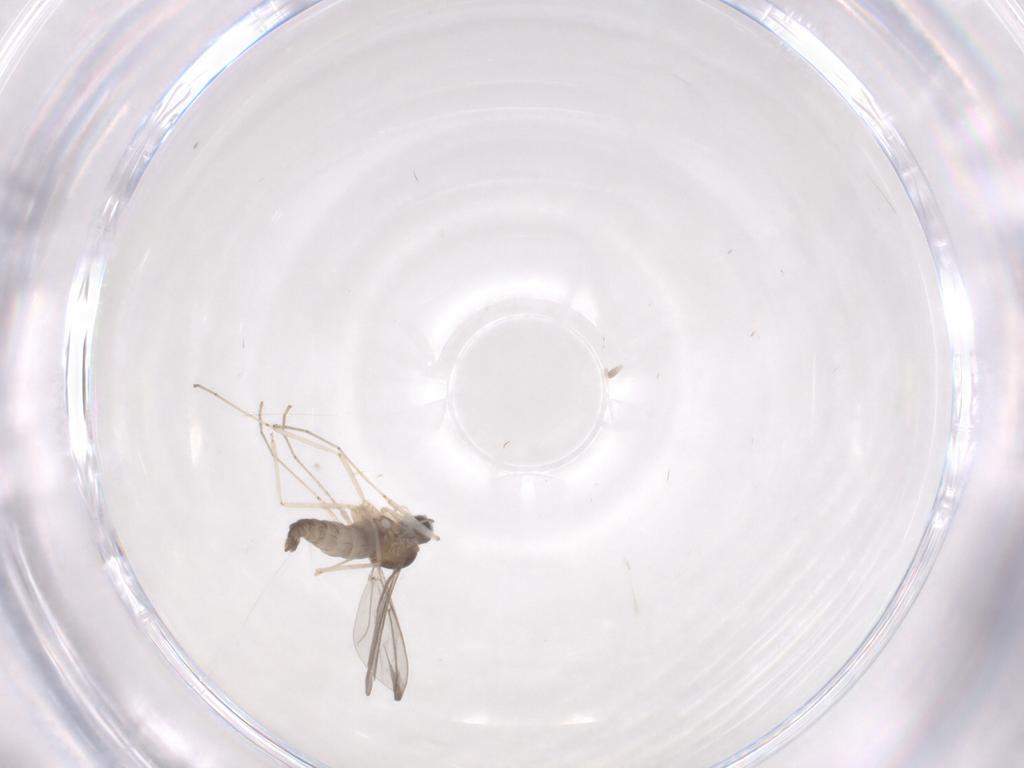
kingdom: Animalia
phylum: Arthropoda
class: Insecta
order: Diptera
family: Cecidomyiidae
